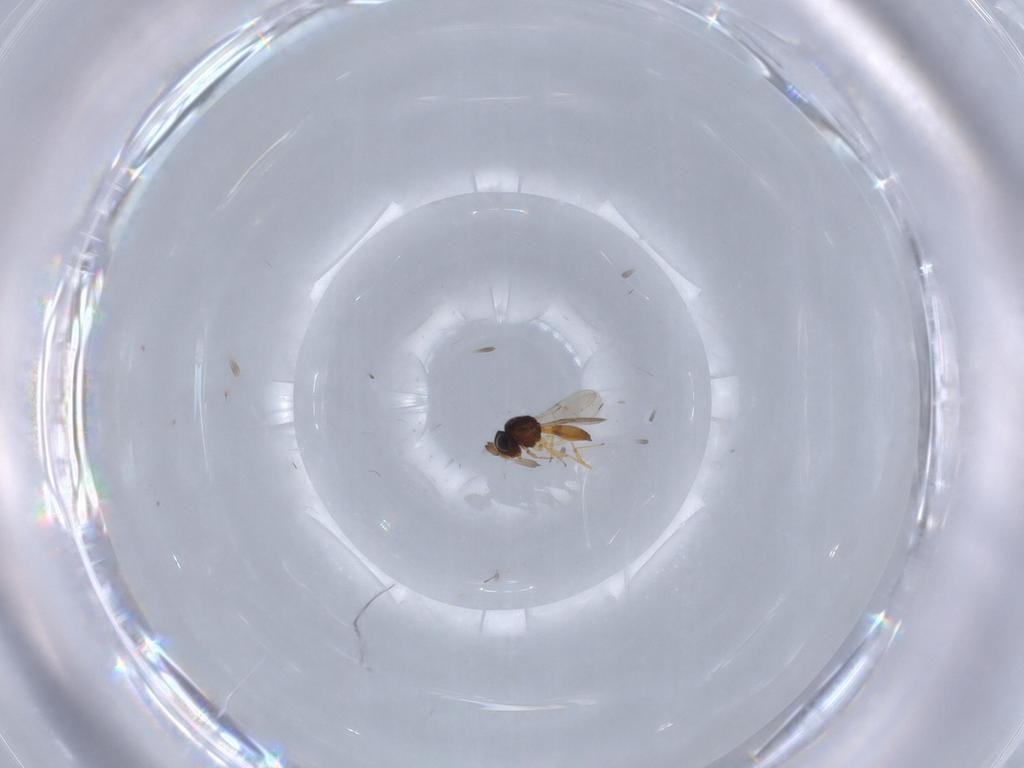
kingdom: Animalia
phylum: Arthropoda
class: Insecta
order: Hymenoptera
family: Scelionidae
